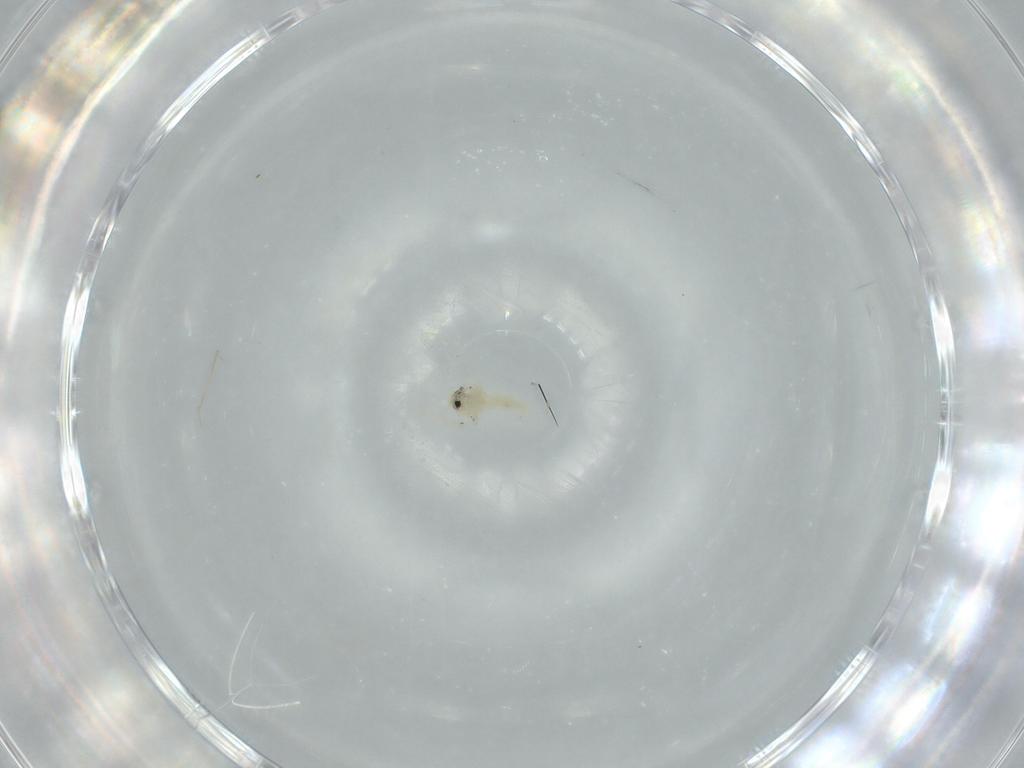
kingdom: Animalia
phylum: Arthropoda
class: Insecta
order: Hemiptera
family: Aleyrodidae
